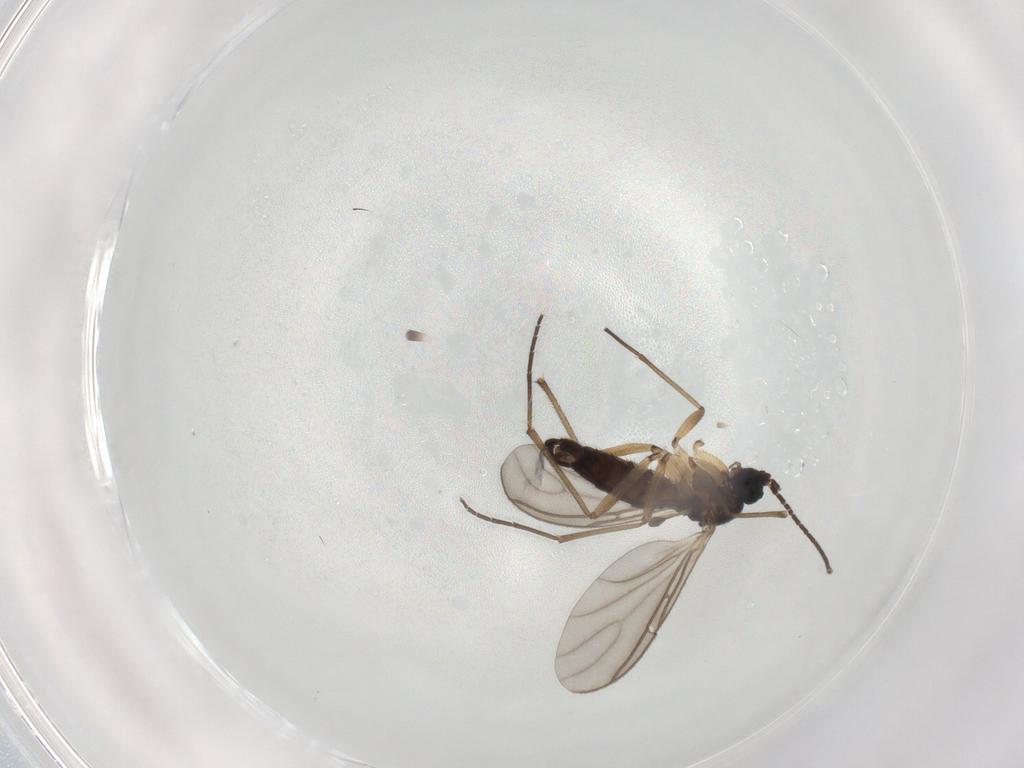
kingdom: Animalia
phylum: Arthropoda
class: Insecta
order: Diptera
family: Sciaridae
